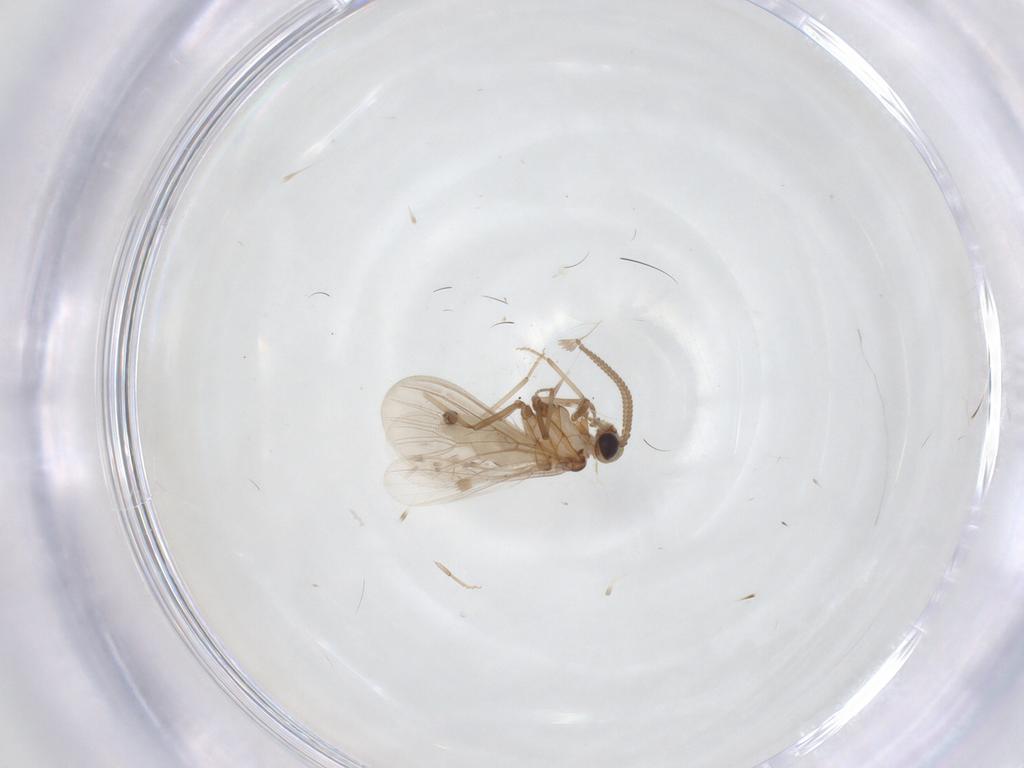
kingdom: Animalia
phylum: Arthropoda
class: Insecta
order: Neuroptera
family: Coniopterygidae
